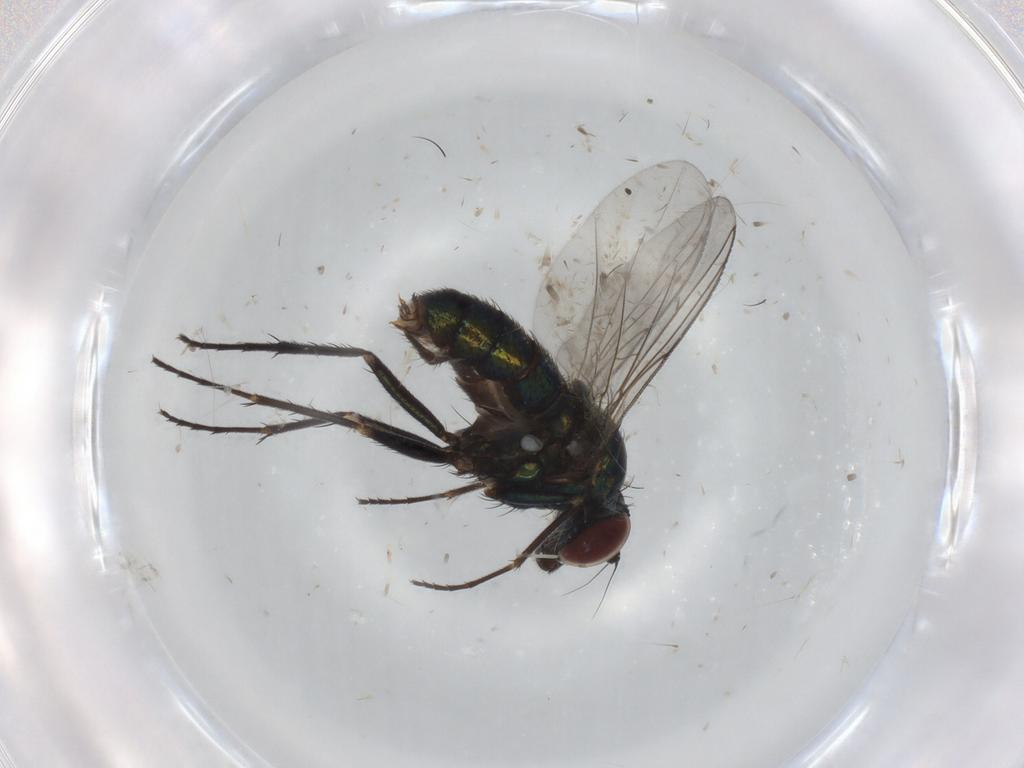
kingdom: Animalia
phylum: Arthropoda
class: Insecta
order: Diptera
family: Dolichopodidae
